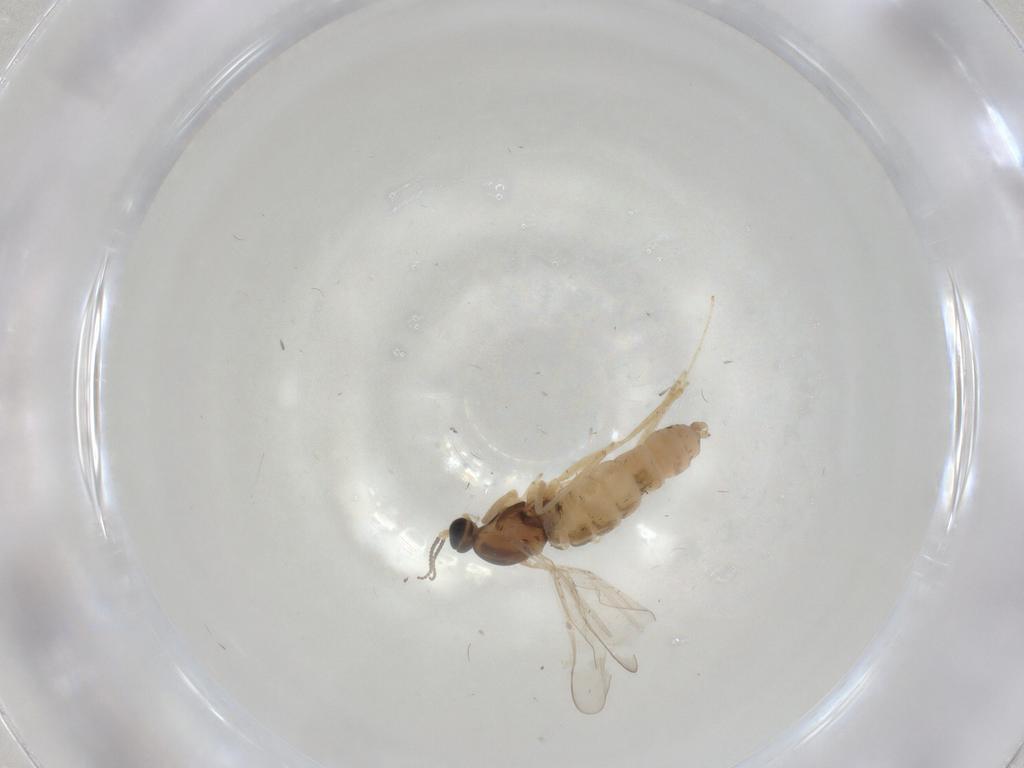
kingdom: Animalia
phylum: Arthropoda
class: Insecta
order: Diptera
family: Cecidomyiidae
